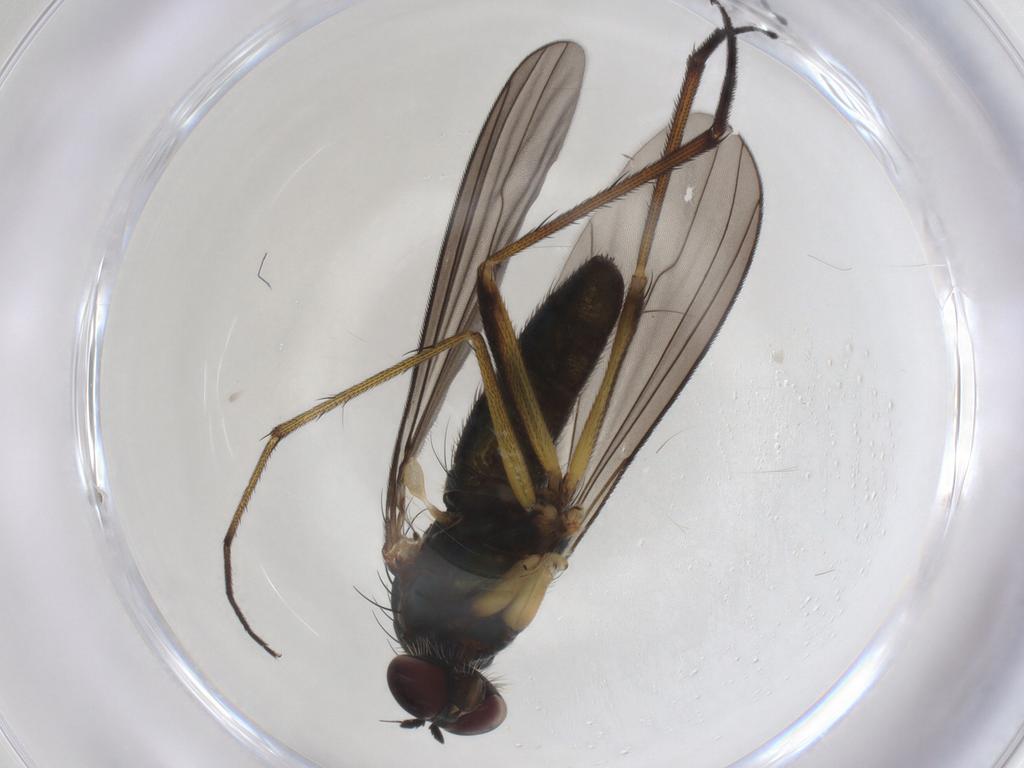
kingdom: Animalia
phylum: Arthropoda
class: Insecta
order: Diptera
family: Dolichopodidae
